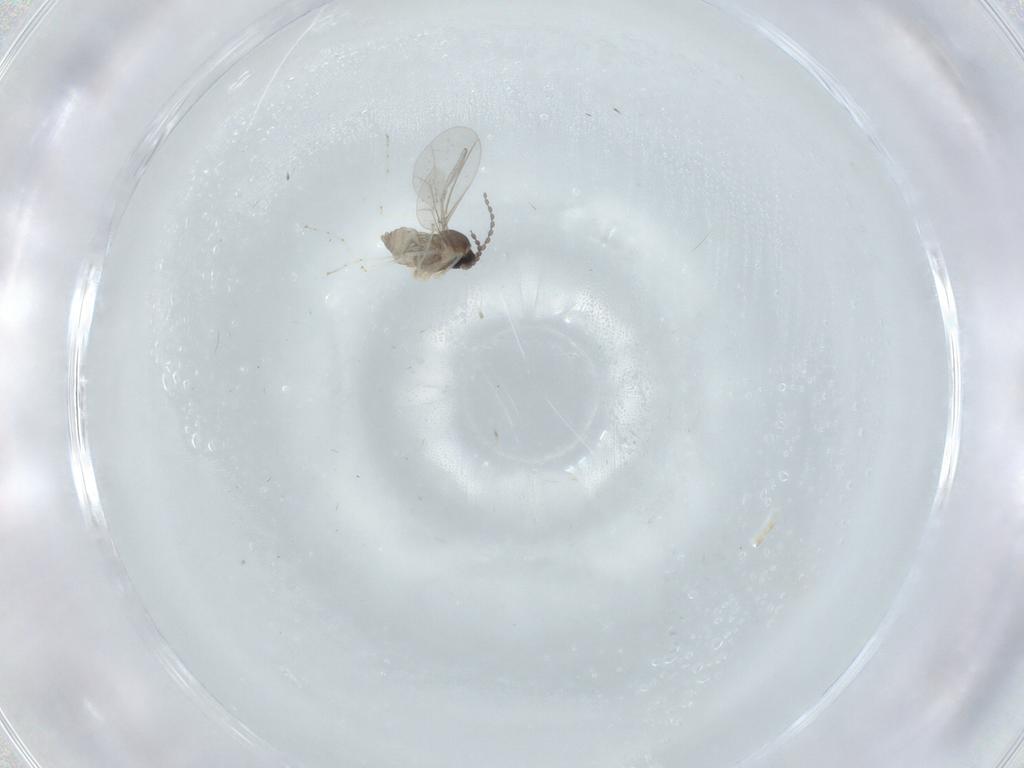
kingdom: Animalia
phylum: Arthropoda
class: Insecta
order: Diptera
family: Cecidomyiidae
